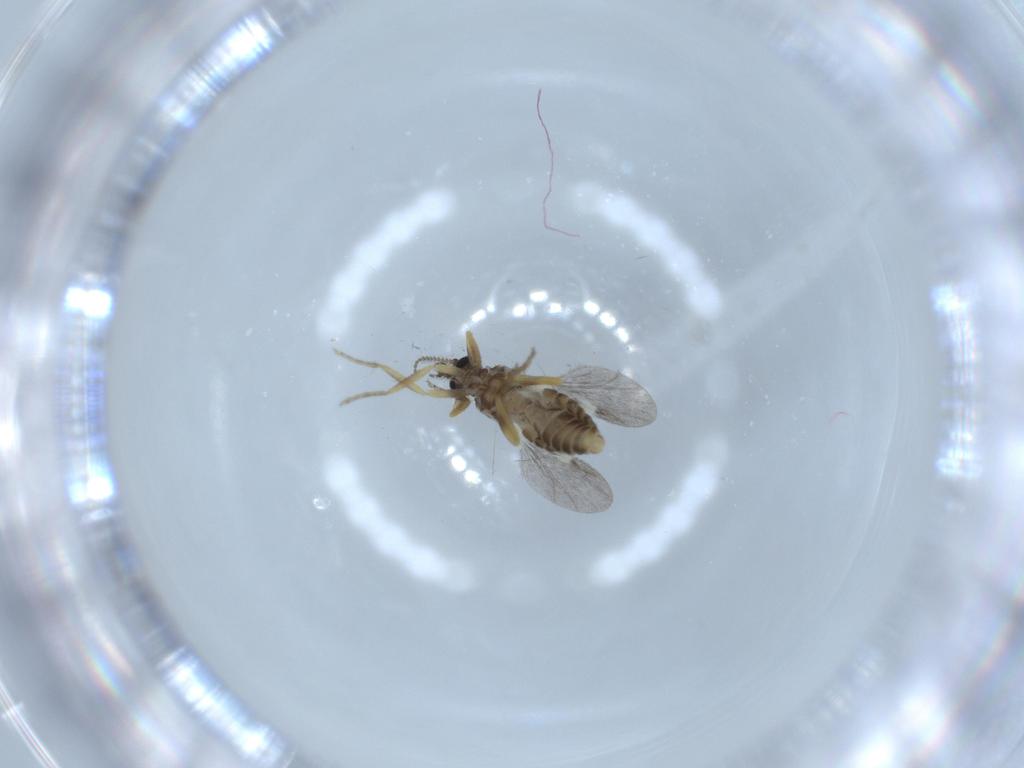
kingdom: Animalia
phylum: Arthropoda
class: Insecta
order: Diptera
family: Ceratopogonidae
